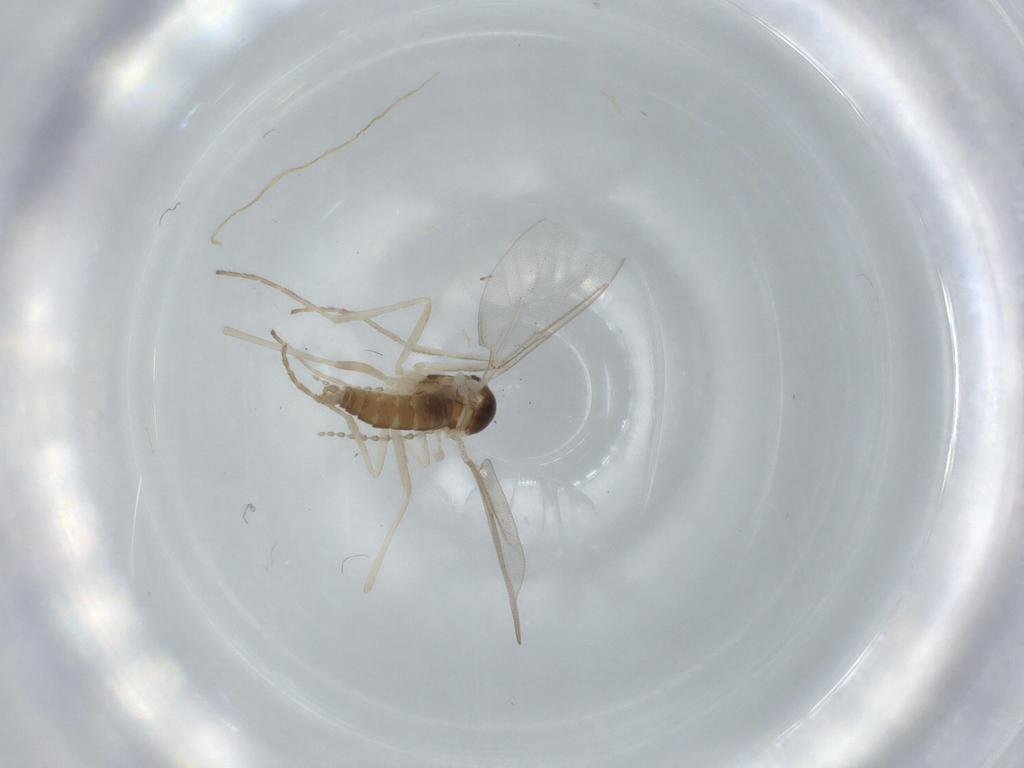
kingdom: Animalia
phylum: Arthropoda
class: Insecta
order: Diptera
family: Cecidomyiidae
